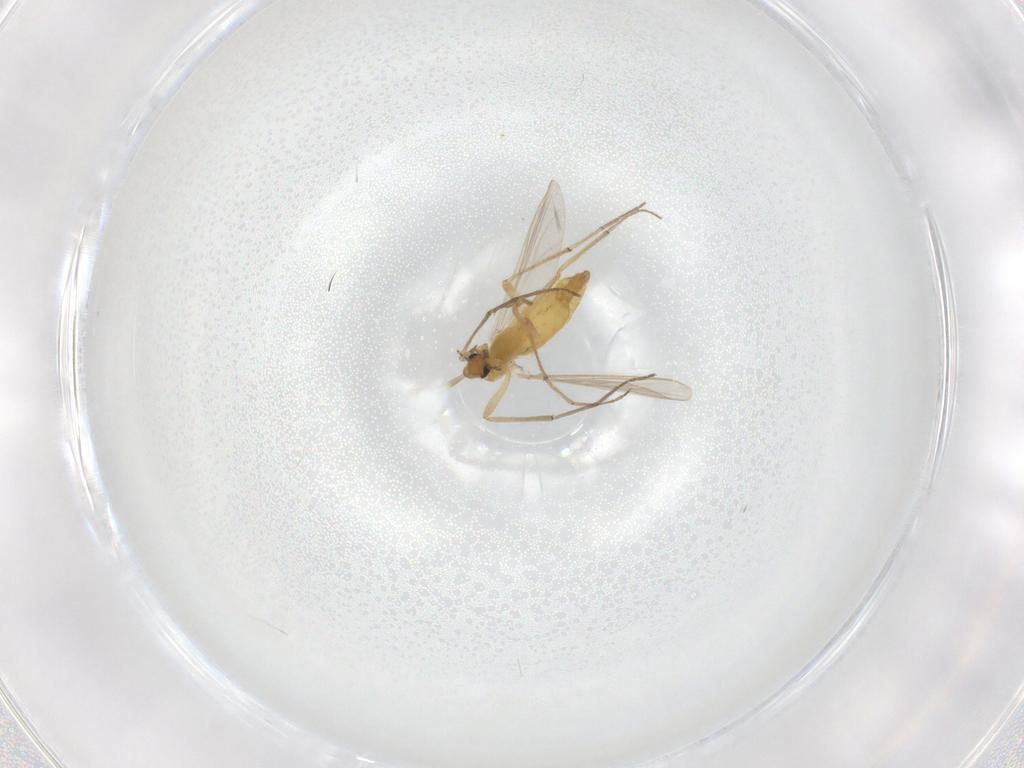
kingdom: Animalia
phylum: Arthropoda
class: Insecta
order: Diptera
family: Chironomidae
